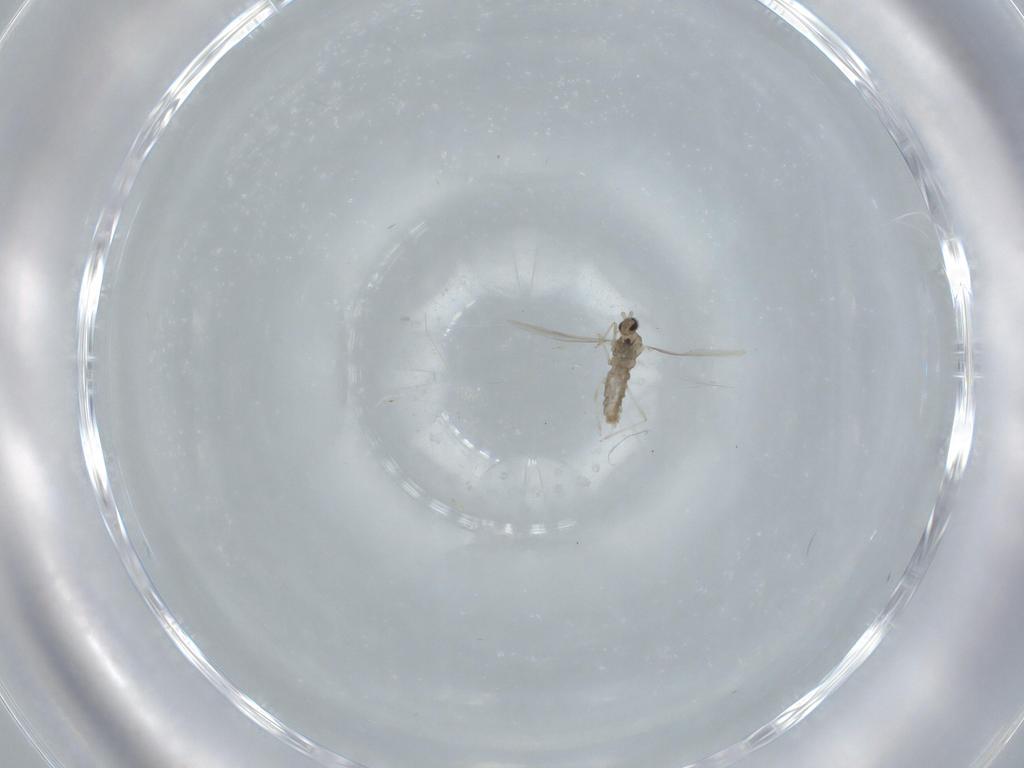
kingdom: Animalia
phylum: Arthropoda
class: Insecta
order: Diptera
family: Cecidomyiidae
